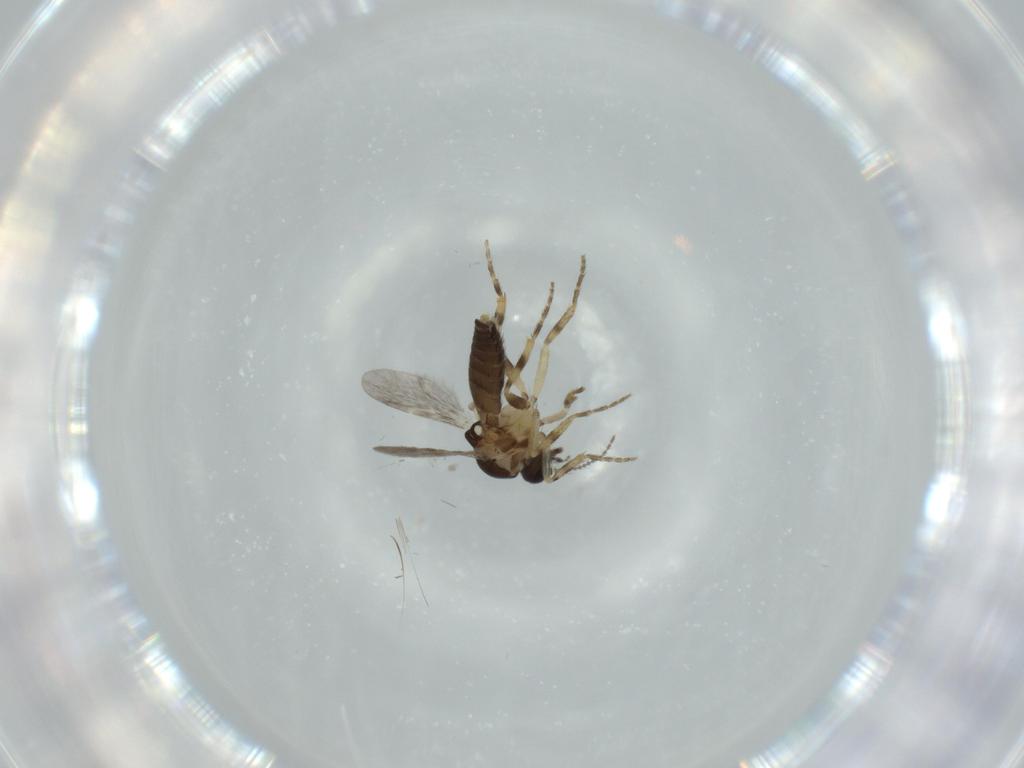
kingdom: Animalia
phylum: Arthropoda
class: Insecta
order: Diptera
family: Ceratopogonidae
